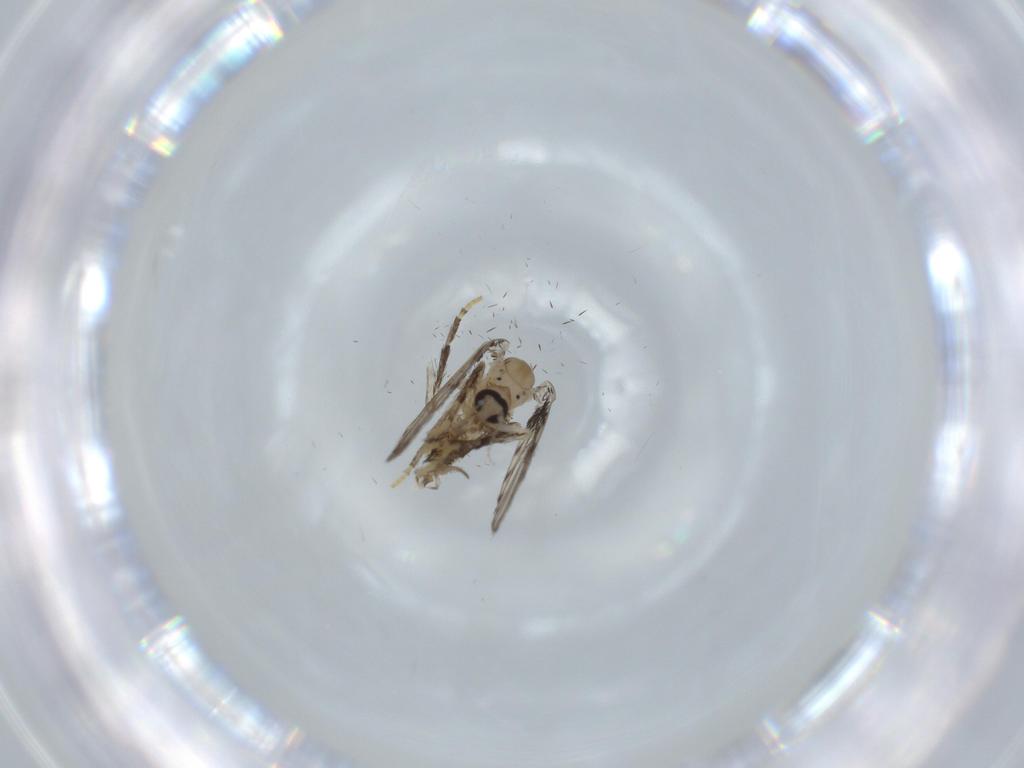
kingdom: Animalia
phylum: Arthropoda
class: Insecta
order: Diptera
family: Psychodidae
